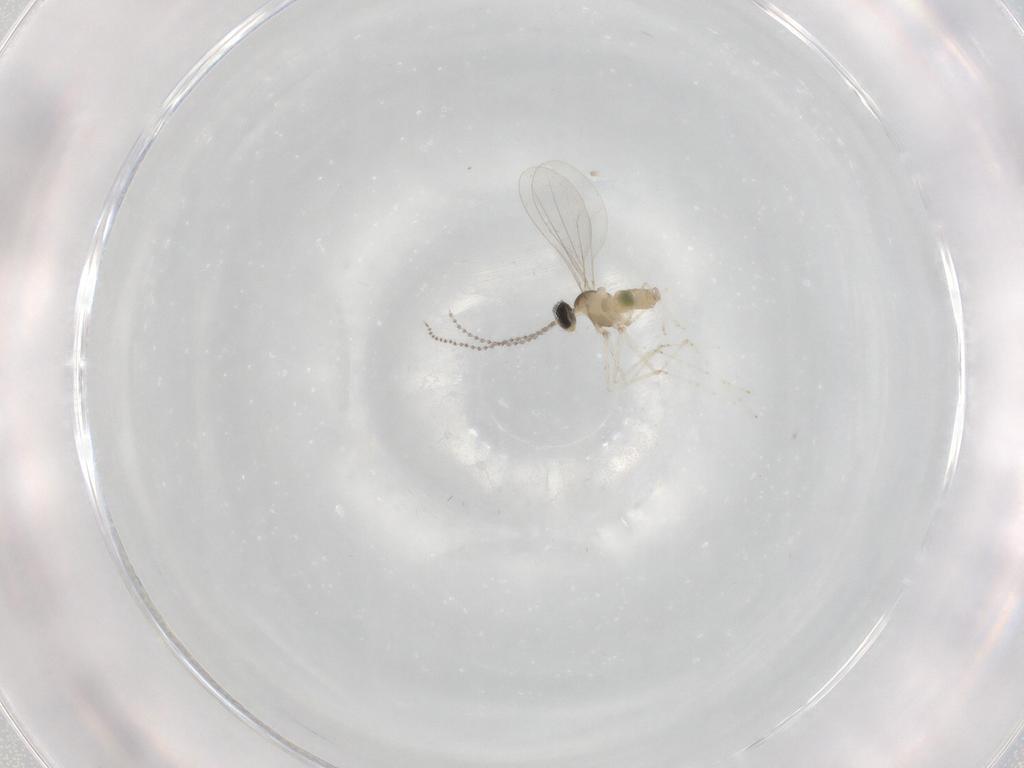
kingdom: Animalia
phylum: Arthropoda
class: Insecta
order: Diptera
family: Cecidomyiidae
